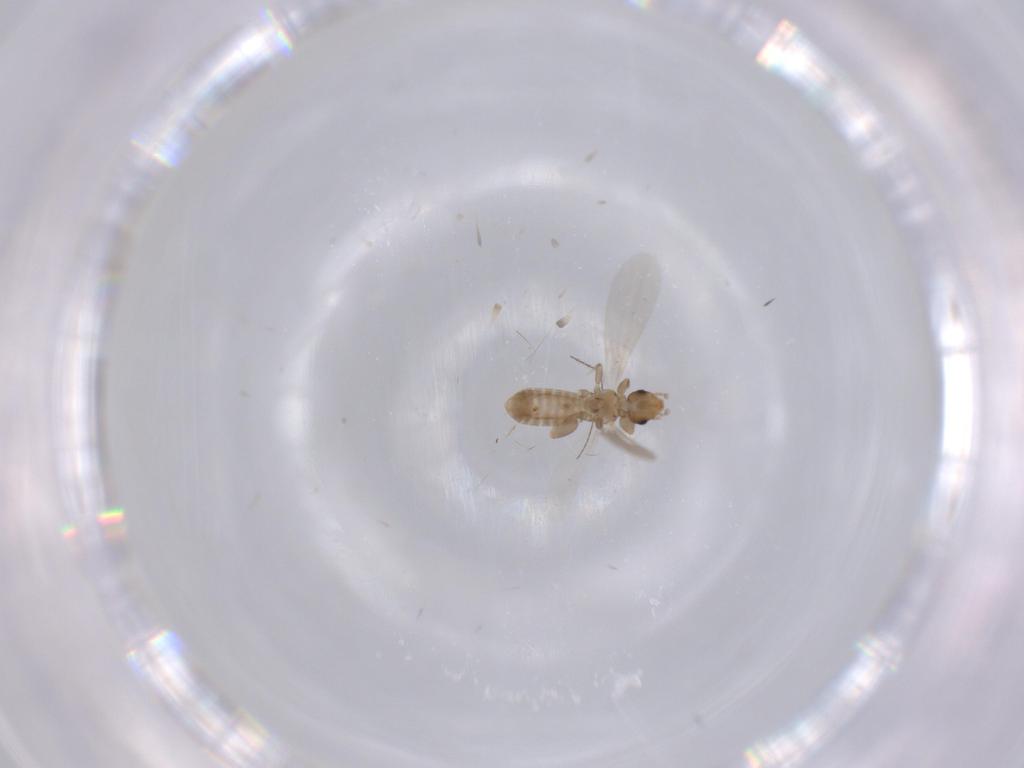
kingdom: Animalia
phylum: Arthropoda
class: Insecta
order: Psocodea
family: Liposcelididae
